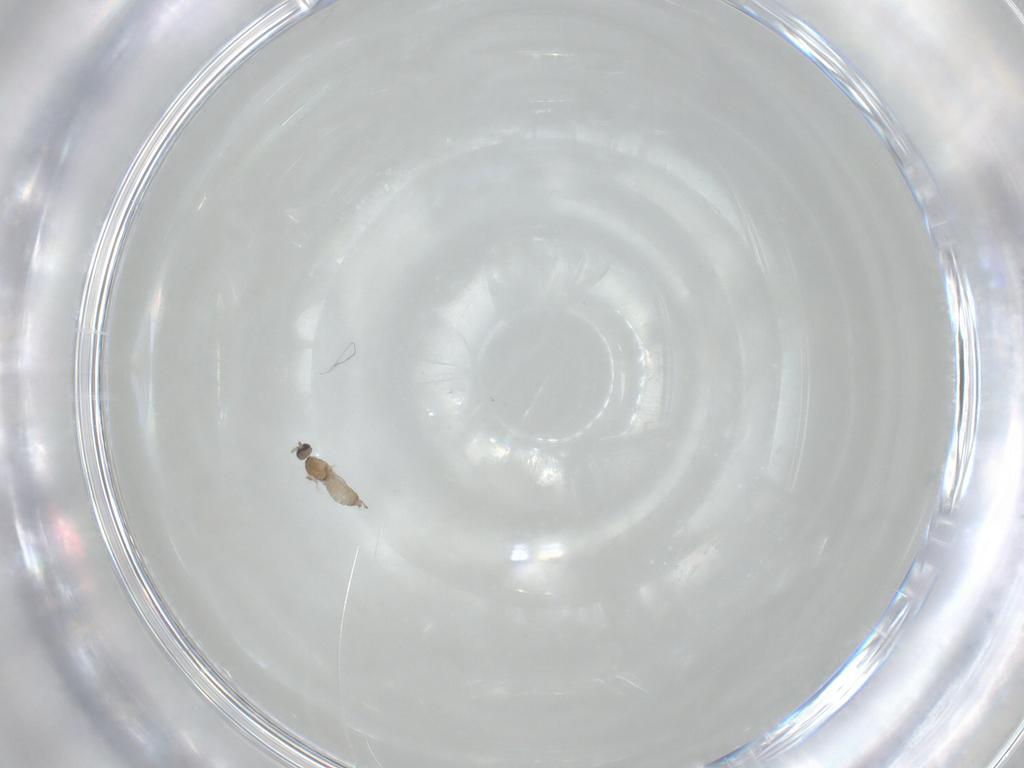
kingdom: Animalia
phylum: Arthropoda
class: Insecta
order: Diptera
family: Cecidomyiidae
